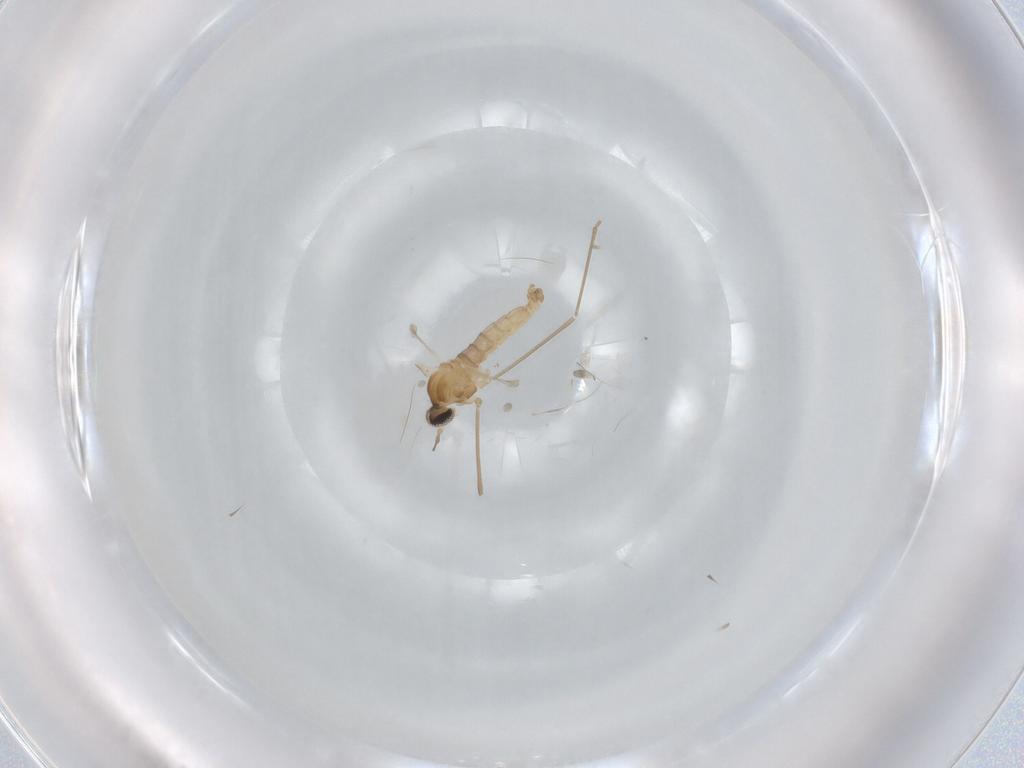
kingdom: Animalia
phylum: Arthropoda
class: Insecta
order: Diptera
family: Cecidomyiidae
